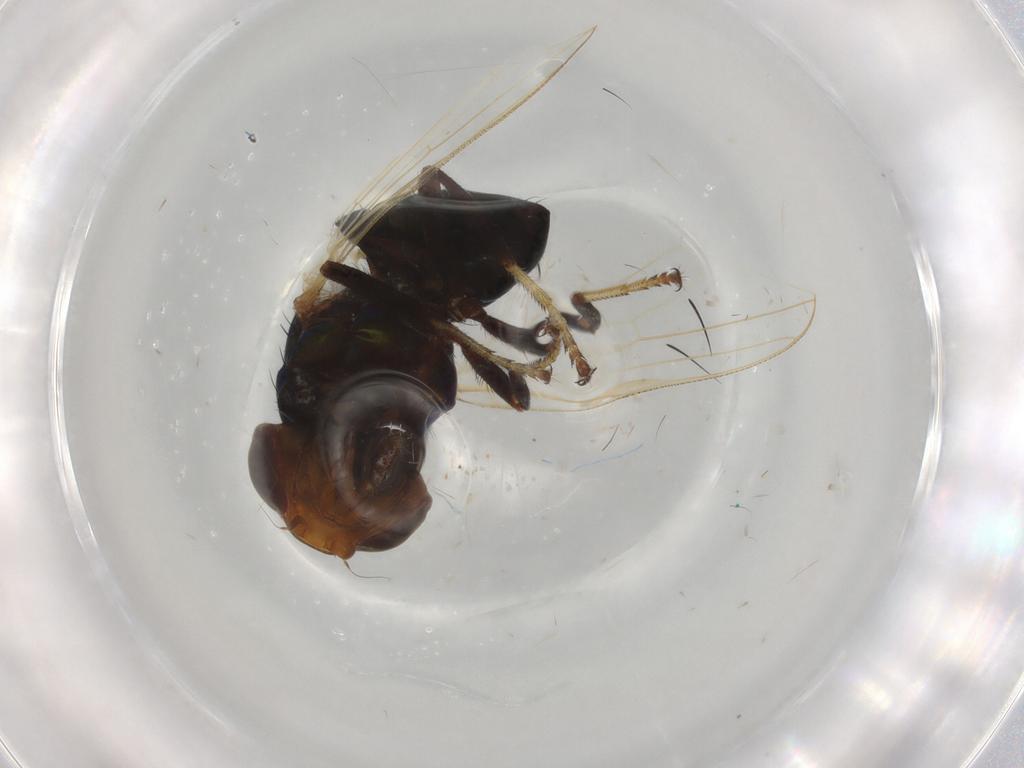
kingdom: Animalia
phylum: Arthropoda
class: Insecta
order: Diptera
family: Dolichopodidae
